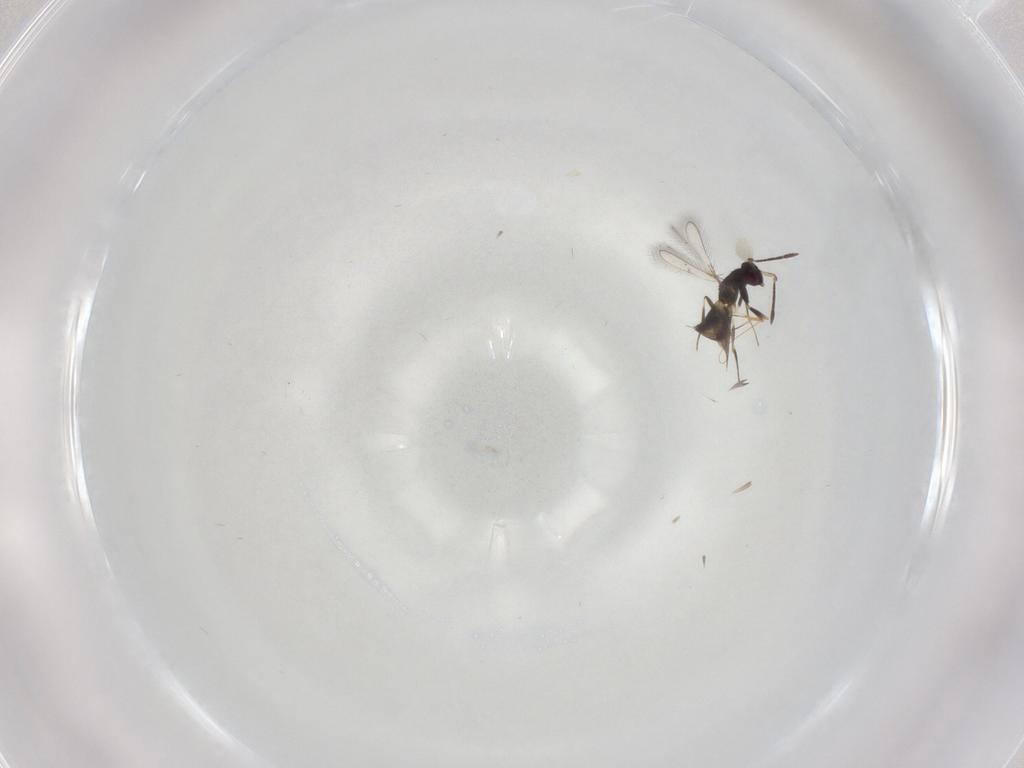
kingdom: Animalia
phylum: Arthropoda
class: Insecta
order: Hymenoptera
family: Mymaridae
